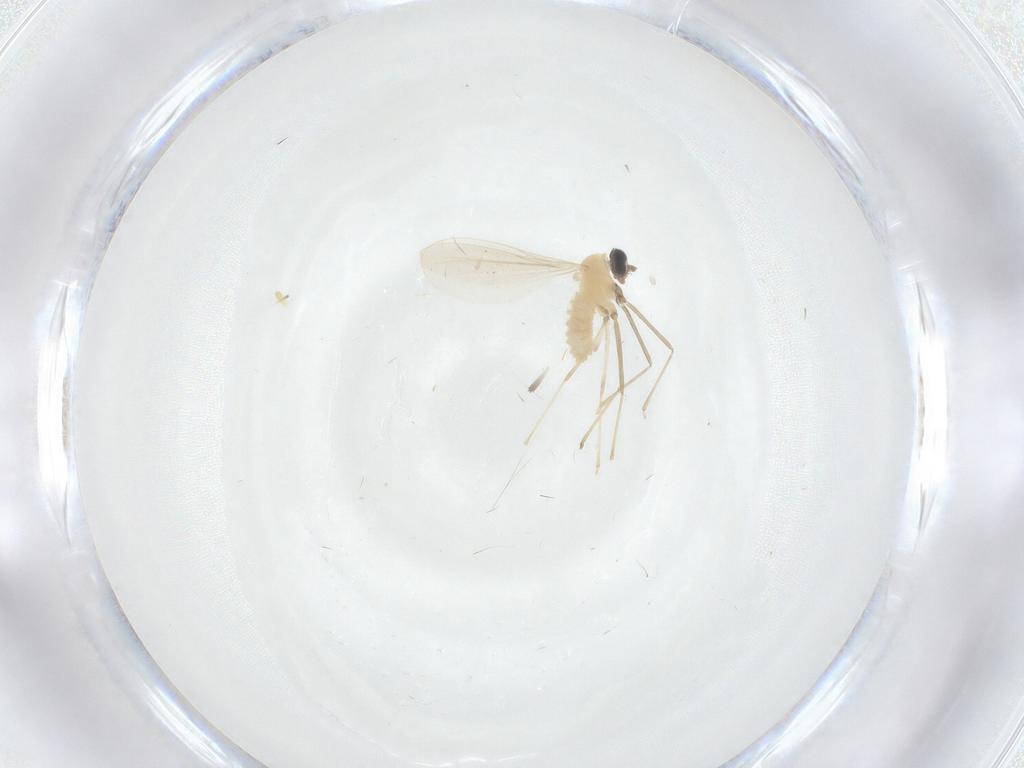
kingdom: Animalia
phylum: Arthropoda
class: Insecta
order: Diptera
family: Cecidomyiidae
